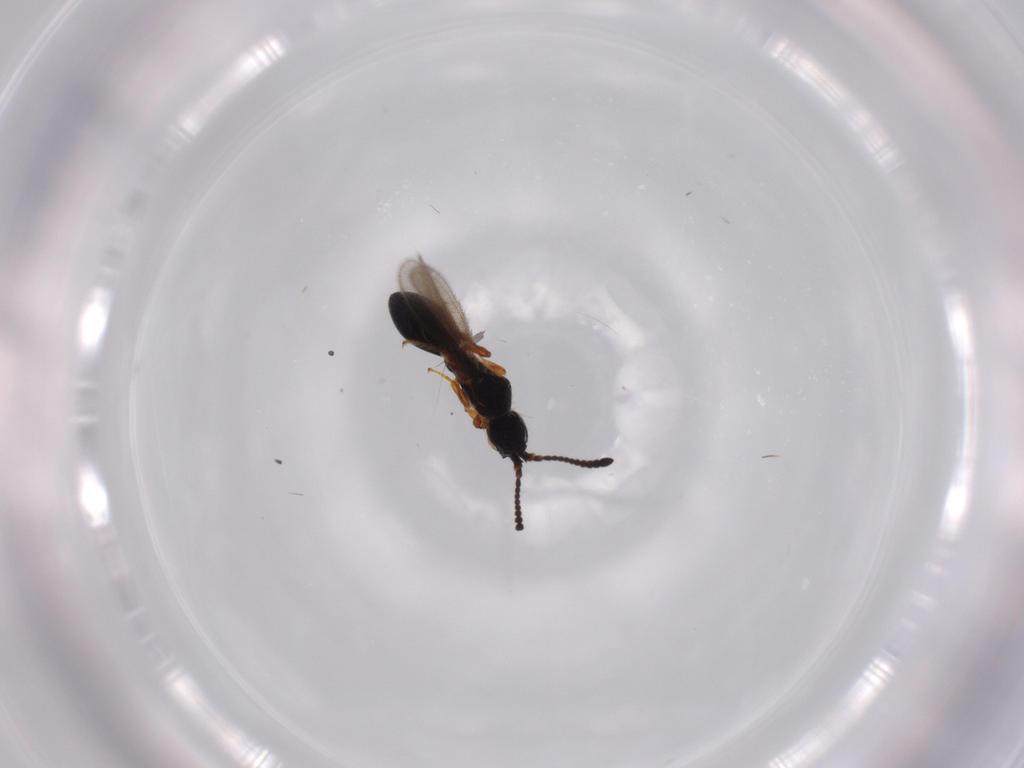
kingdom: Animalia
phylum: Arthropoda
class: Insecta
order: Hymenoptera
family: Diapriidae
